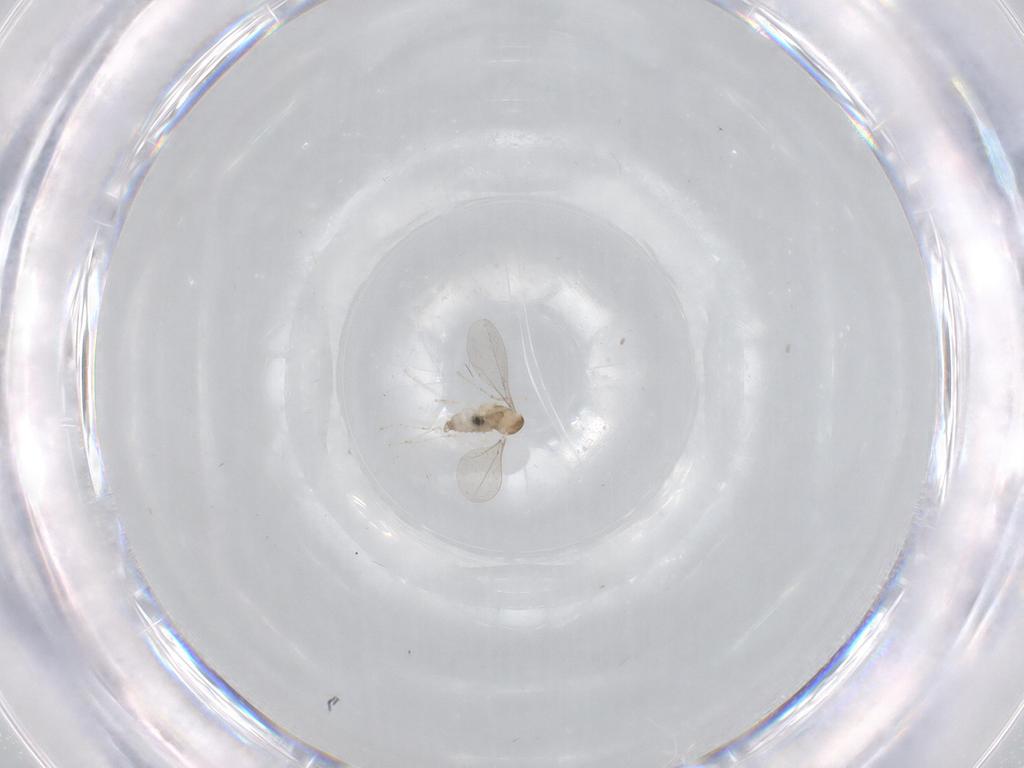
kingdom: Animalia
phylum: Arthropoda
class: Insecta
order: Diptera
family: Cecidomyiidae
